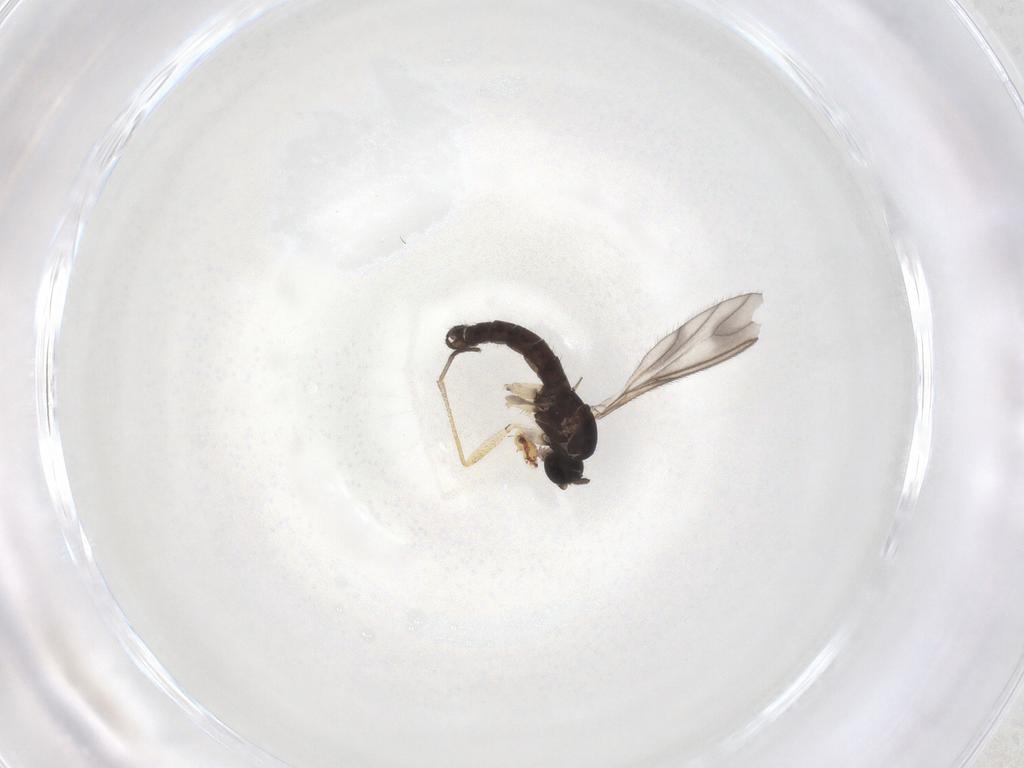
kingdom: Animalia
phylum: Arthropoda
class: Insecta
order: Diptera
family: Sciaridae
